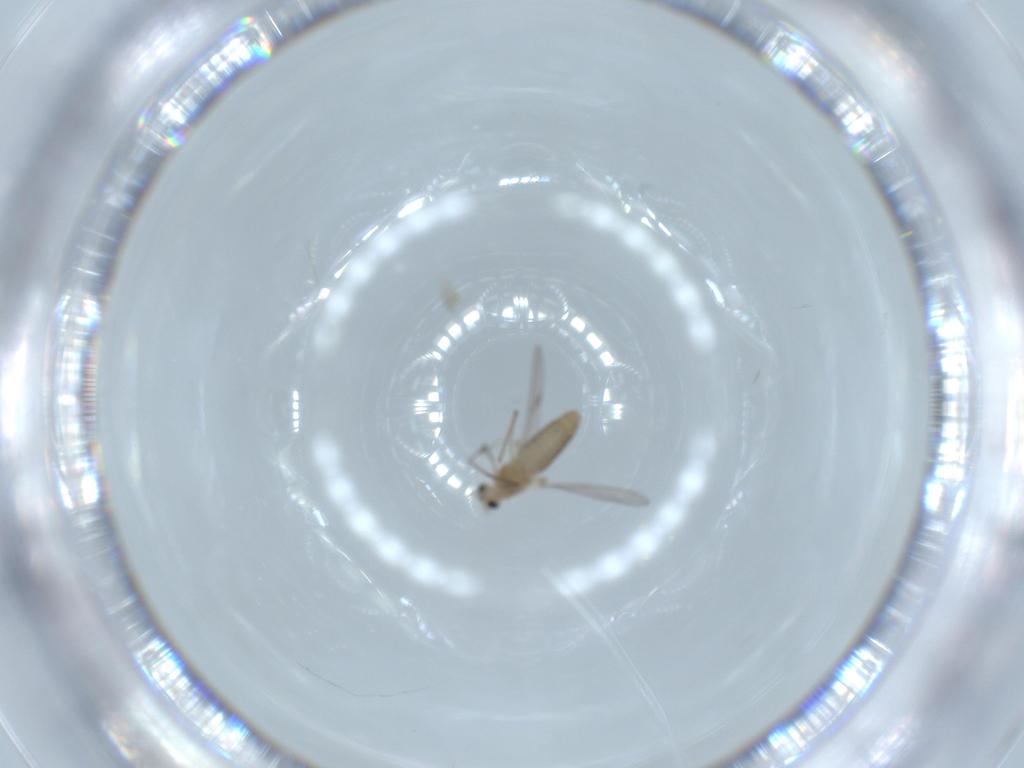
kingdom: Animalia
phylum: Arthropoda
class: Insecta
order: Diptera
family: Chironomidae
